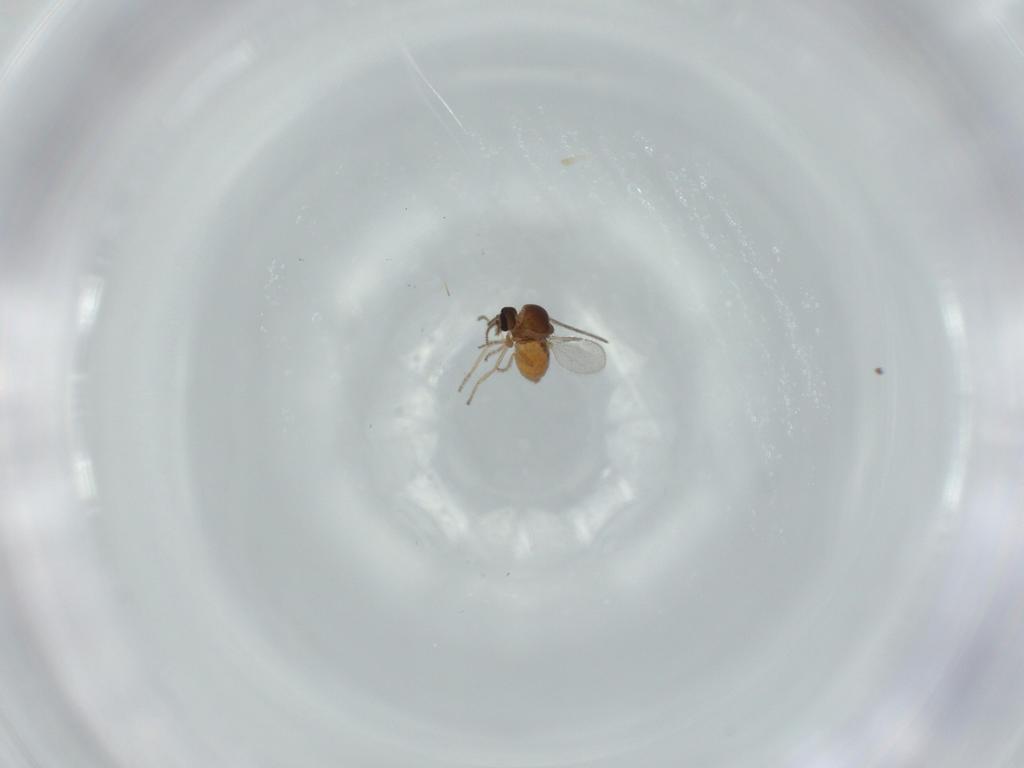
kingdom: Animalia
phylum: Arthropoda
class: Insecta
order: Diptera
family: Ceratopogonidae
